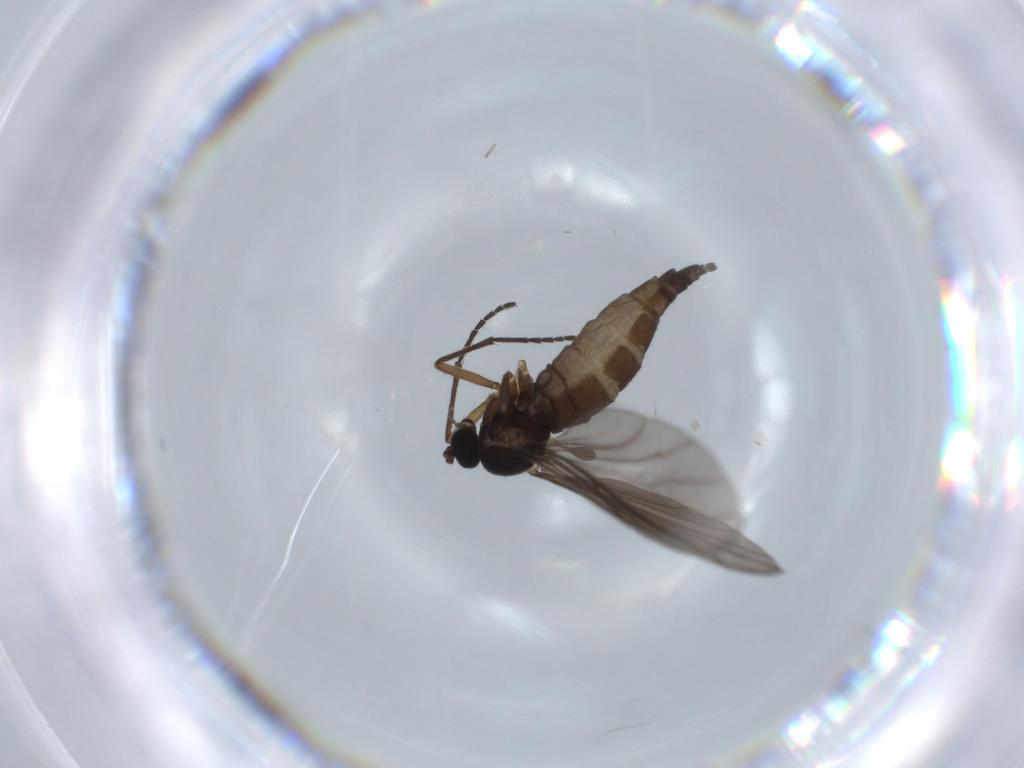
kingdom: Animalia
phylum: Arthropoda
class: Insecta
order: Diptera
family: Sciaridae
